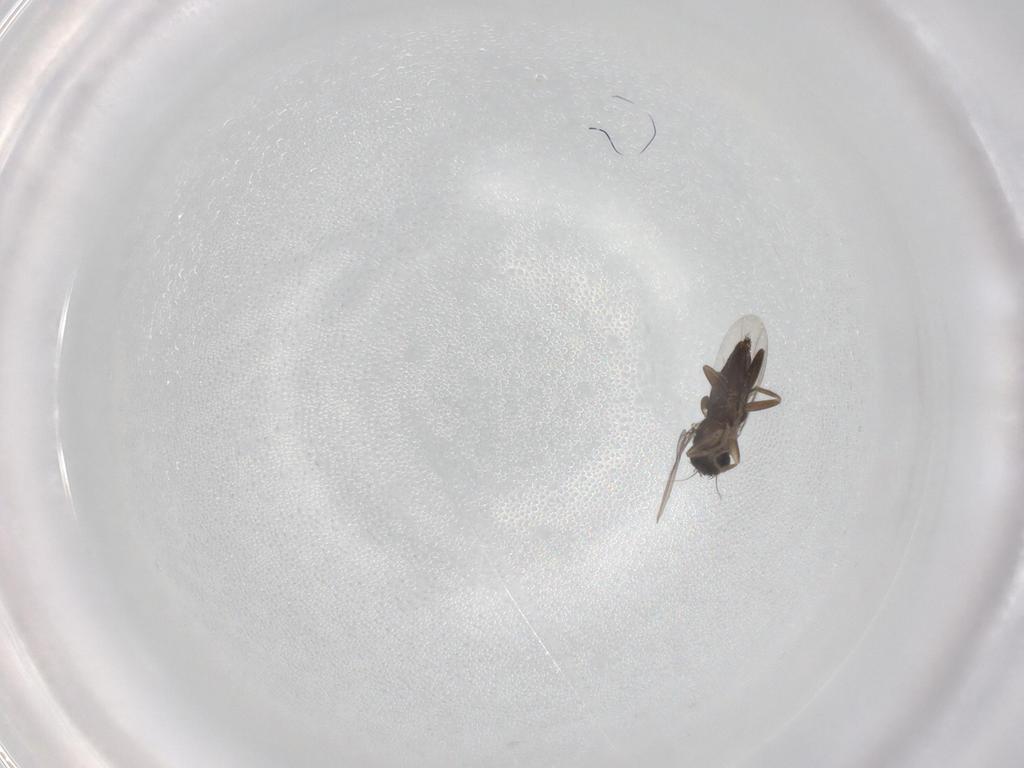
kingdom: Animalia
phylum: Arthropoda
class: Insecta
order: Diptera
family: Phoridae
